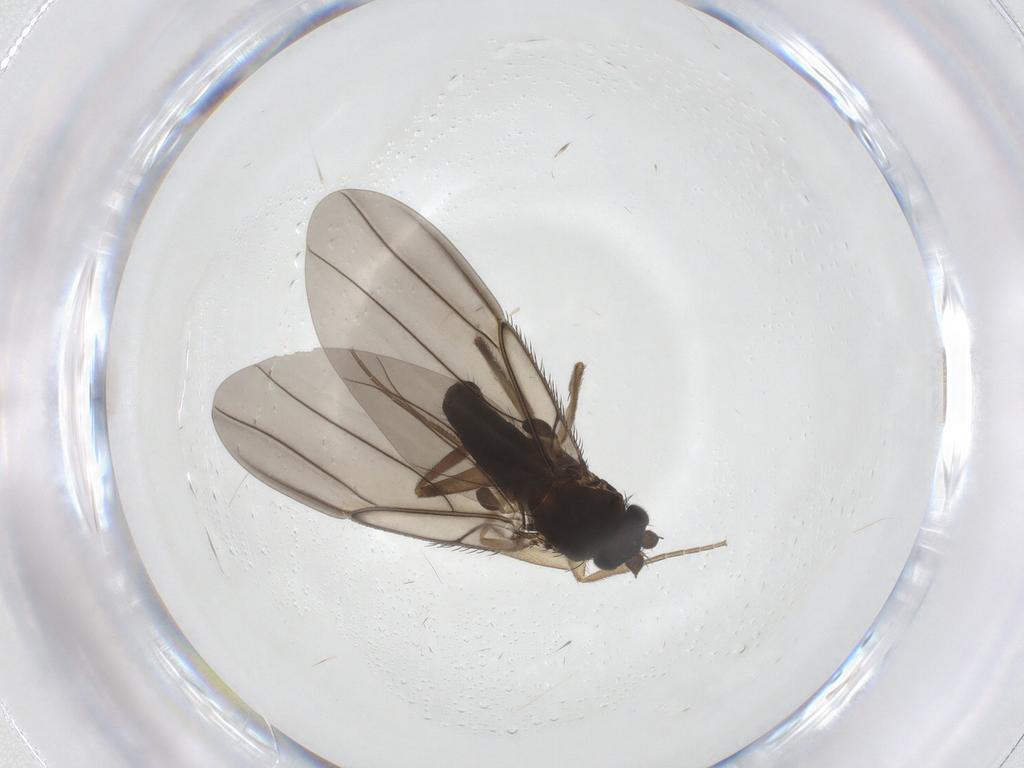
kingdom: Animalia
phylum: Arthropoda
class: Insecta
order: Diptera
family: Phoridae
